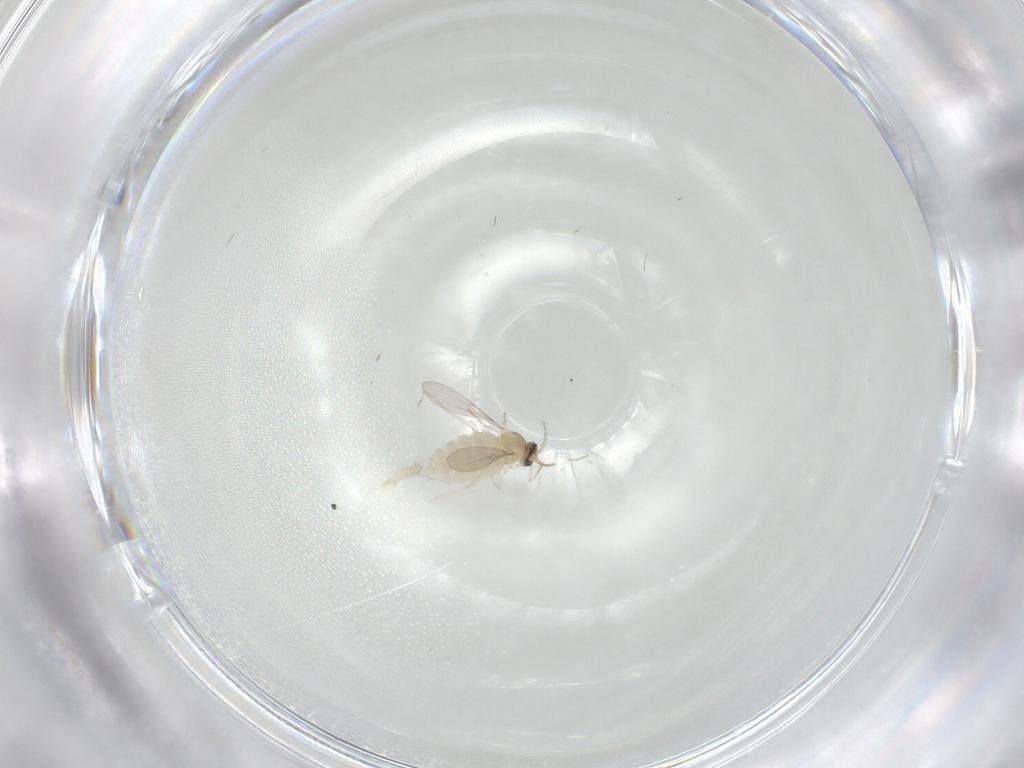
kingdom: Animalia
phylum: Arthropoda
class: Insecta
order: Diptera
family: Cecidomyiidae
